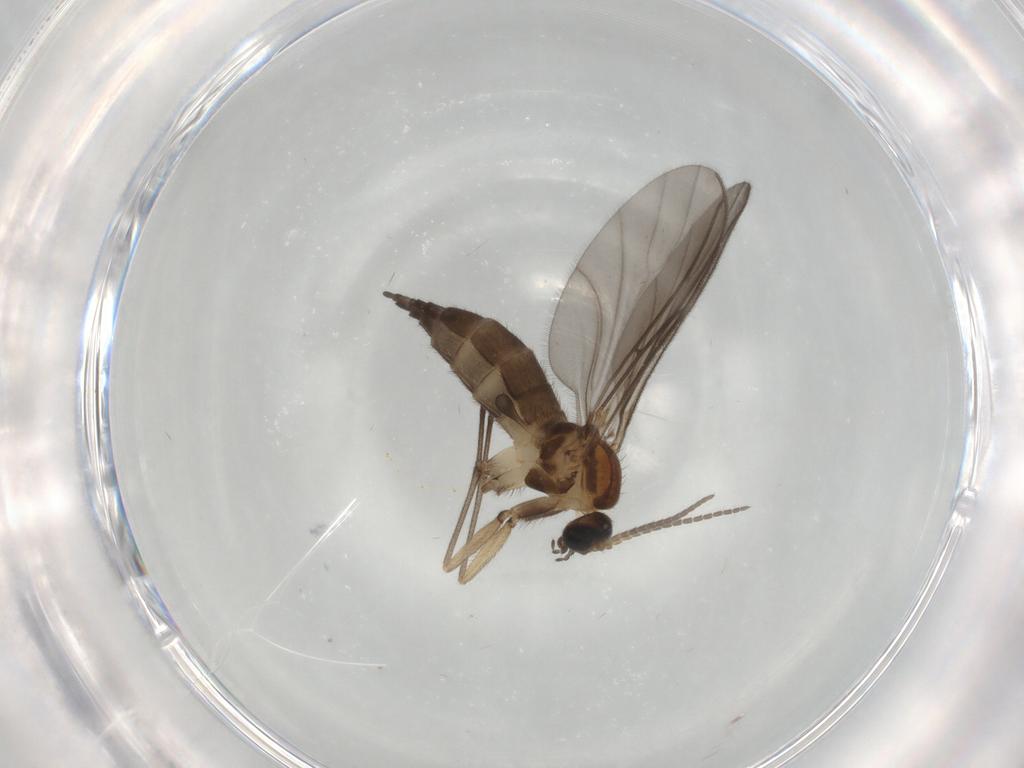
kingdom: Animalia
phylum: Arthropoda
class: Insecta
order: Diptera
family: Sciaridae
